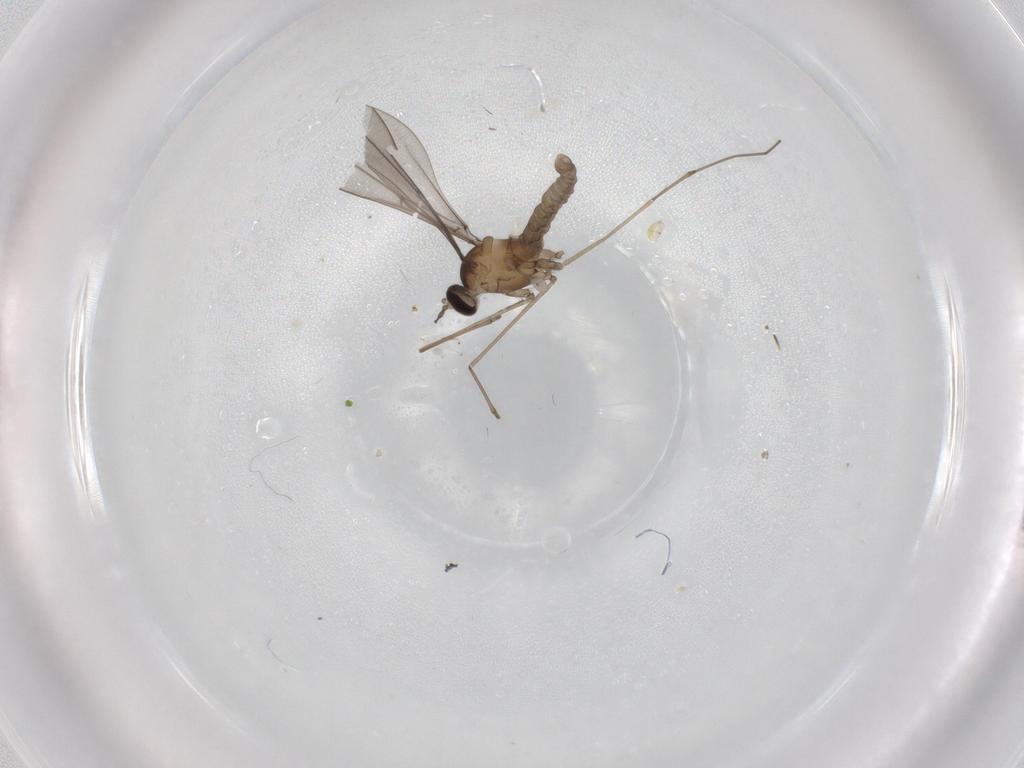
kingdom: Animalia
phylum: Arthropoda
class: Insecta
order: Diptera
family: Cecidomyiidae
